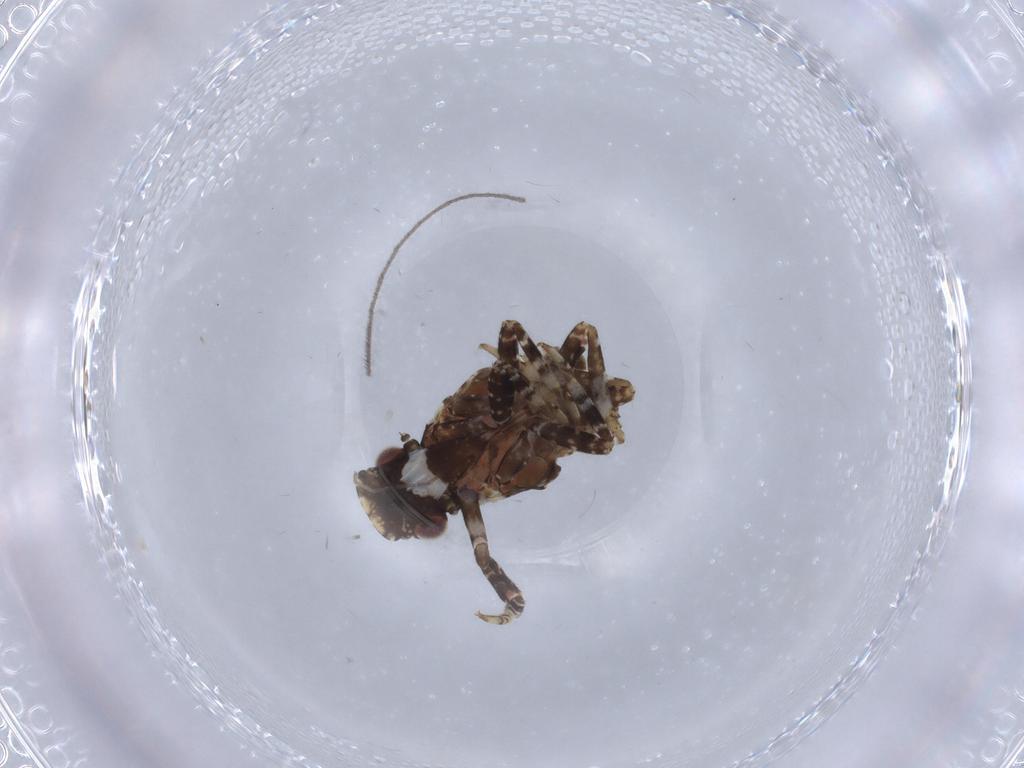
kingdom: Animalia
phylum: Arthropoda
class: Insecta
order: Hemiptera
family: Fulgoridae
